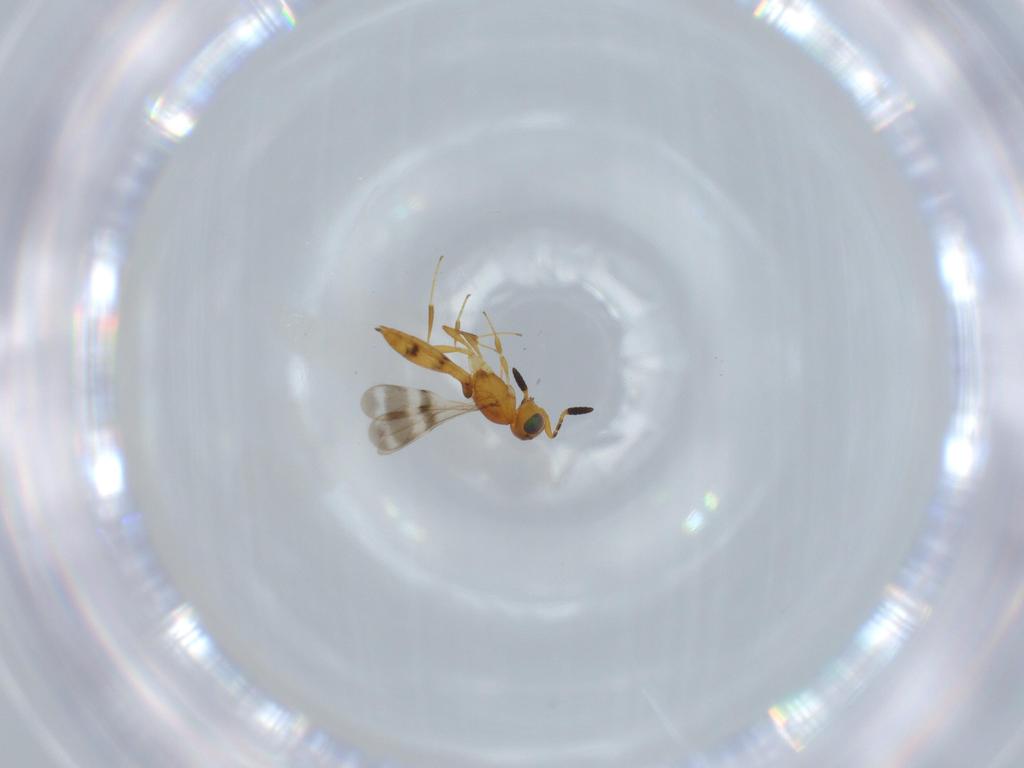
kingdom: Animalia
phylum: Arthropoda
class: Insecta
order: Hymenoptera
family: Scelionidae
